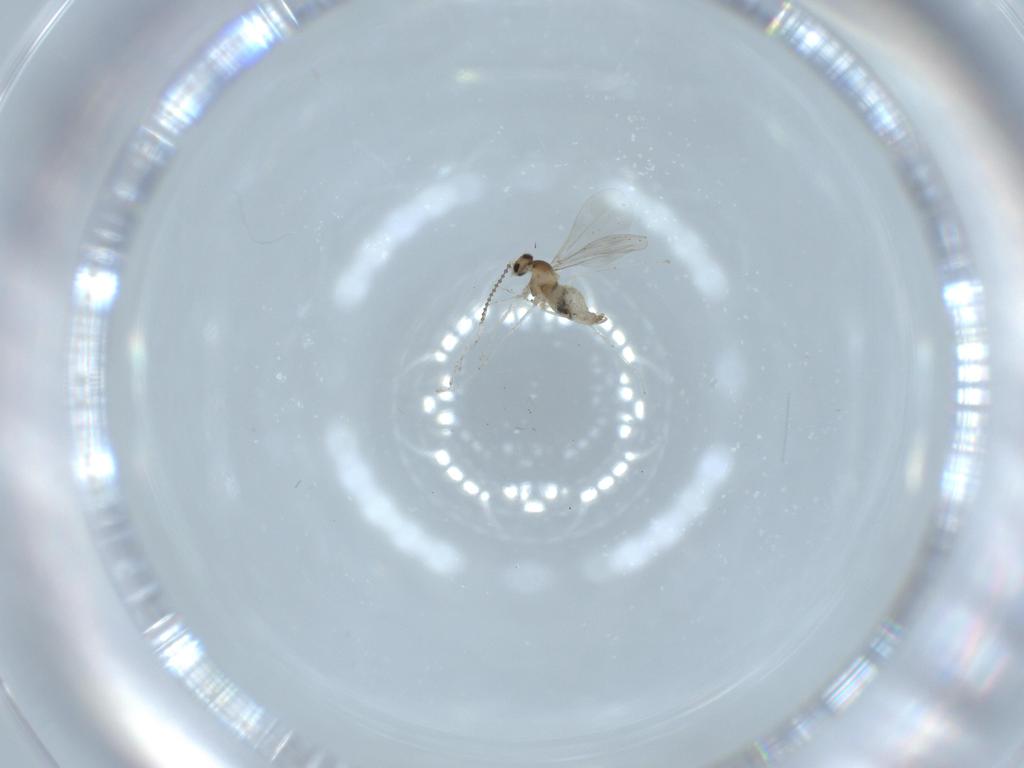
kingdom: Animalia
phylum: Arthropoda
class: Insecta
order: Diptera
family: Cecidomyiidae
